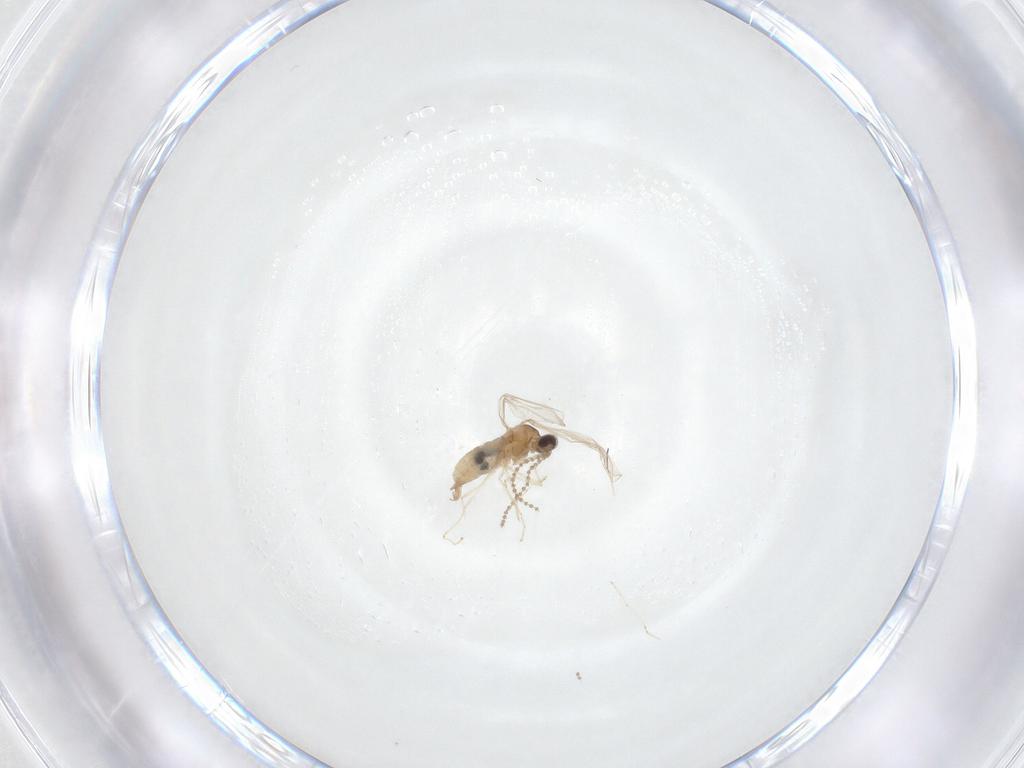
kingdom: Animalia
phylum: Arthropoda
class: Insecta
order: Diptera
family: Cecidomyiidae
